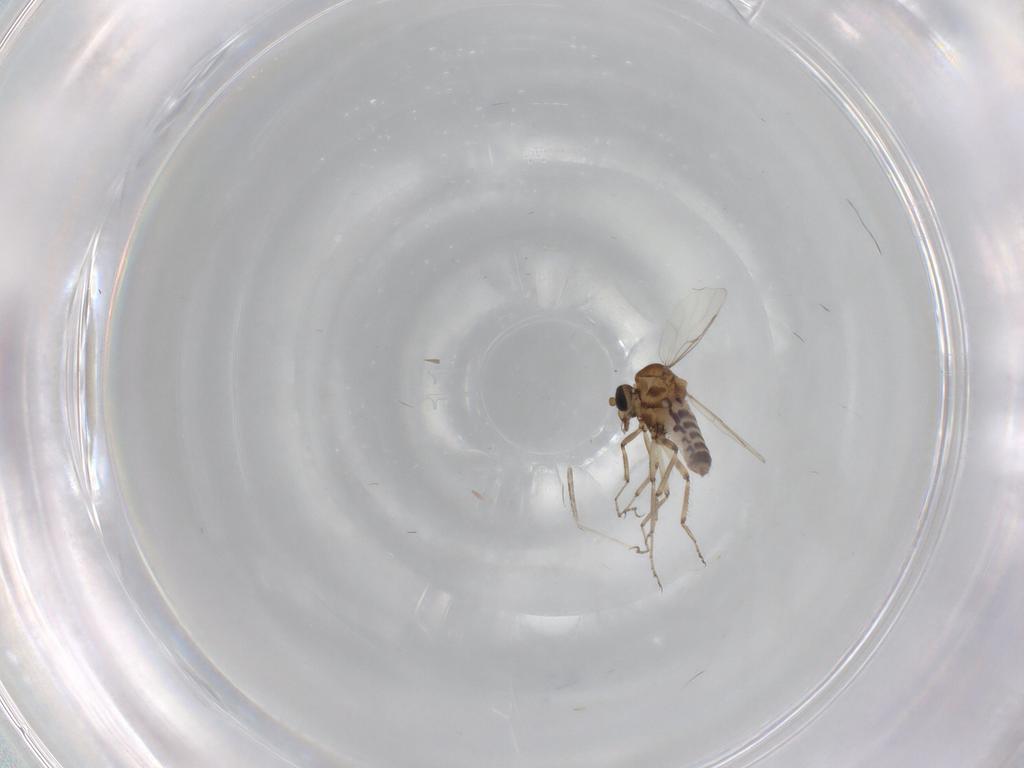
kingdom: Animalia
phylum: Arthropoda
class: Insecta
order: Diptera
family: Ceratopogonidae
